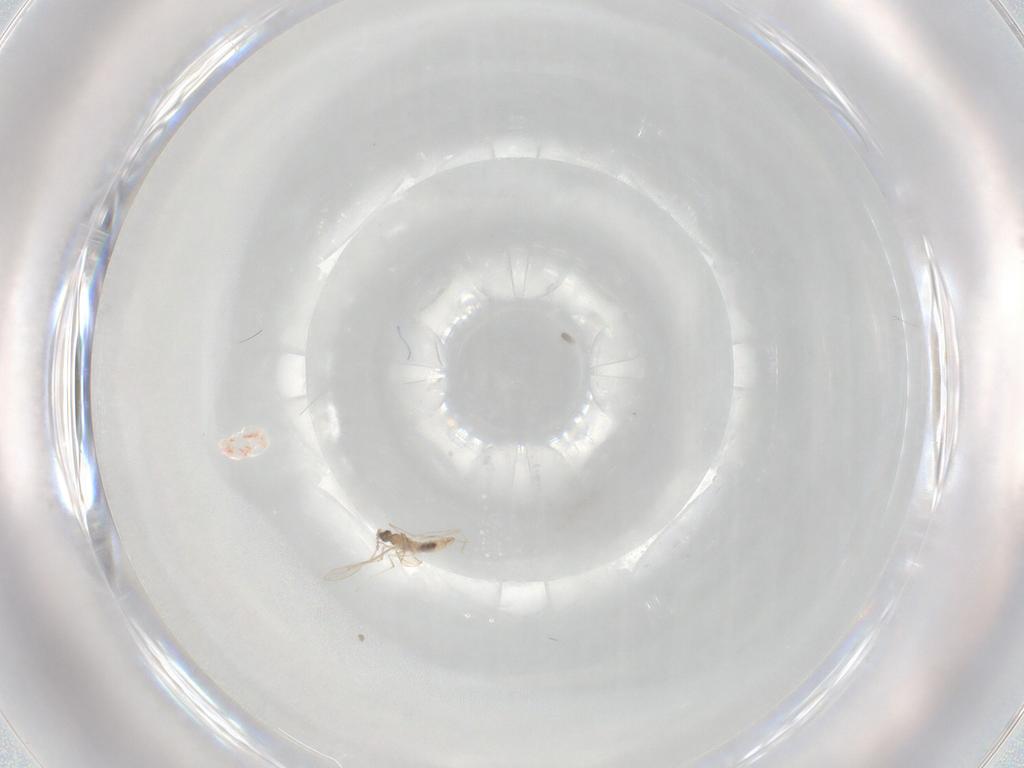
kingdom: Animalia
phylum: Arthropoda
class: Insecta
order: Diptera
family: Cecidomyiidae
